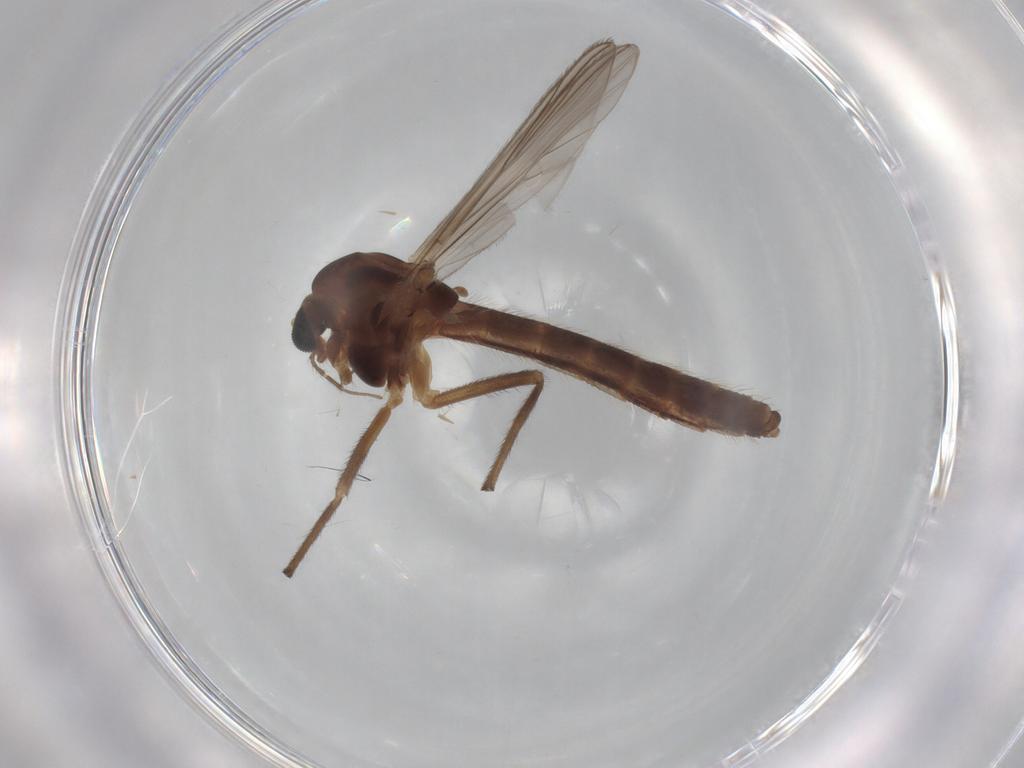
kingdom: Animalia
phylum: Arthropoda
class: Insecta
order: Diptera
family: Chironomidae
